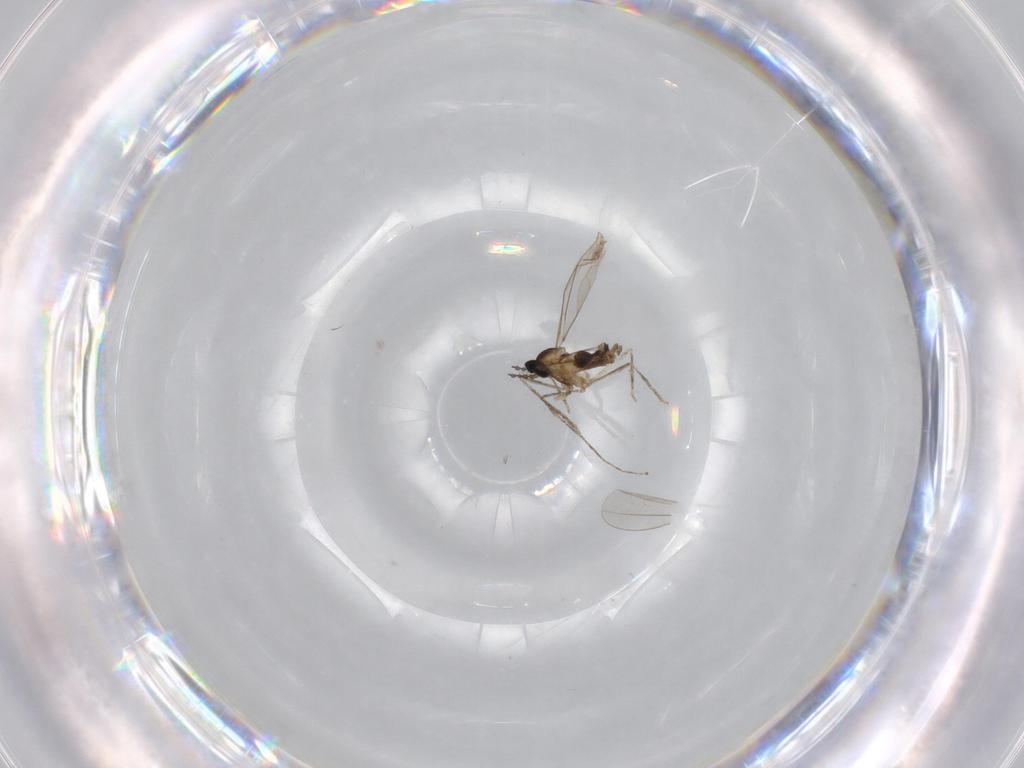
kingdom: Animalia
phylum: Arthropoda
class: Insecta
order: Diptera
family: Cecidomyiidae
